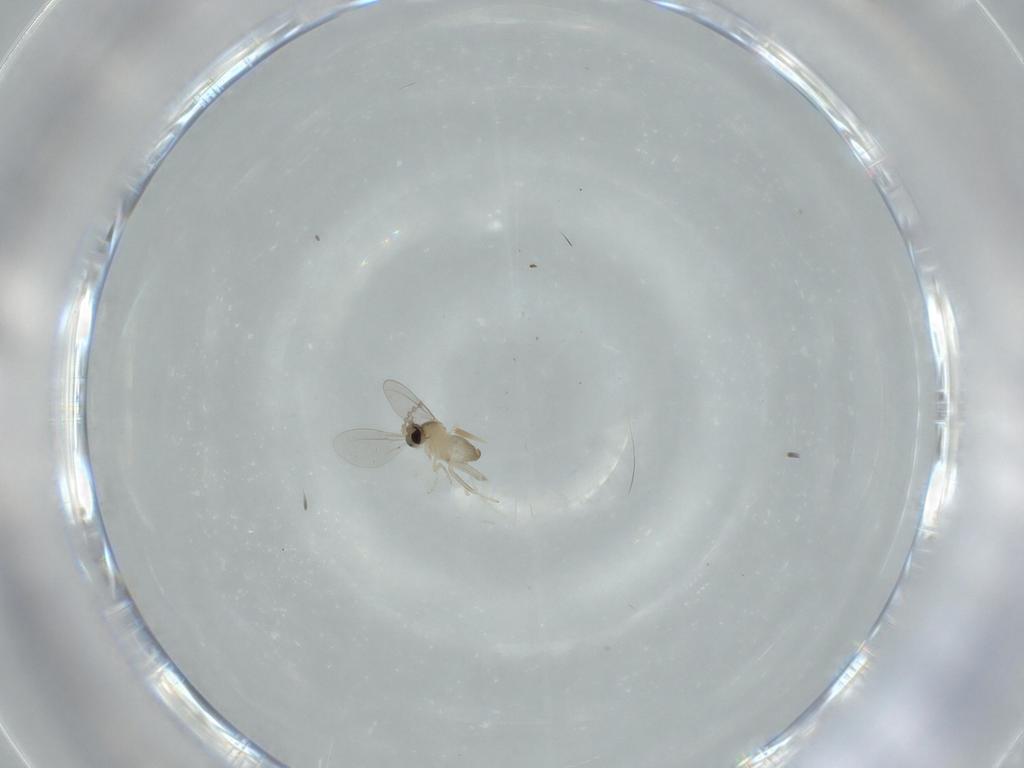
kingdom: Animalia
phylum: Arthropoda
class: Insecta
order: Diptera
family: Cecidomyiidae
